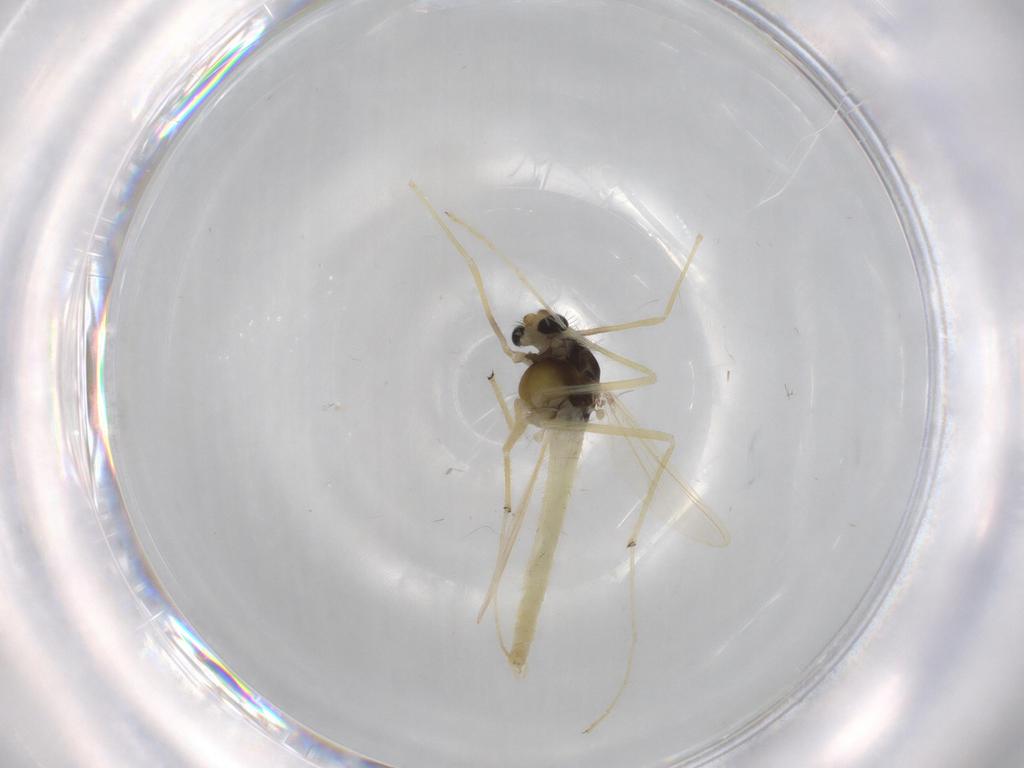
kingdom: Animalia
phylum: Arthropoda
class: Insecta
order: Diptera
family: Chironomidae
